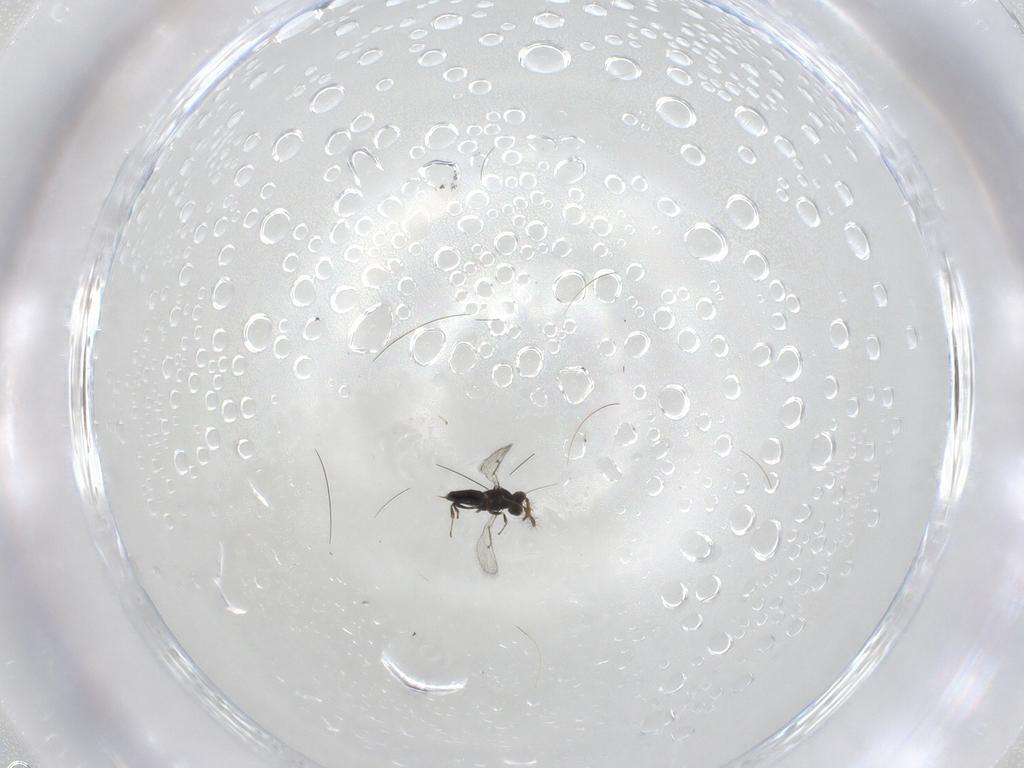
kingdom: Animalia
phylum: Arthropoda
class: Insecta
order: Hymenoptera
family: Trichogrammatidae
